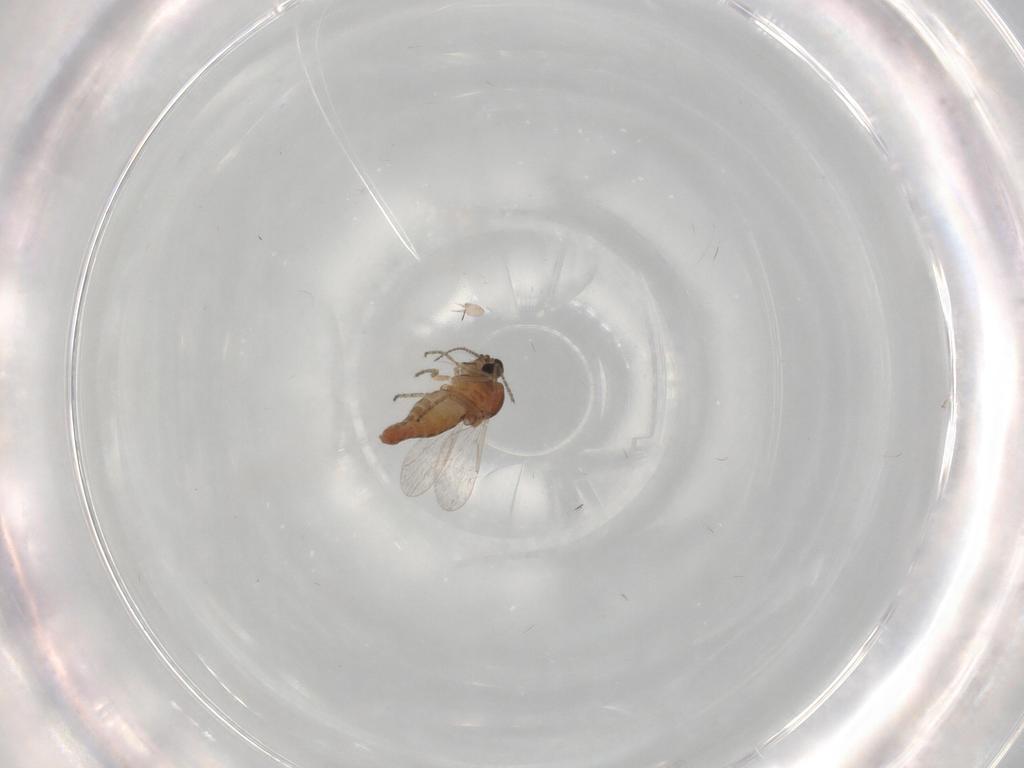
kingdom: Animalia
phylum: Arthropoda
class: Insecta
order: Diptera
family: Ceratopogonidae
